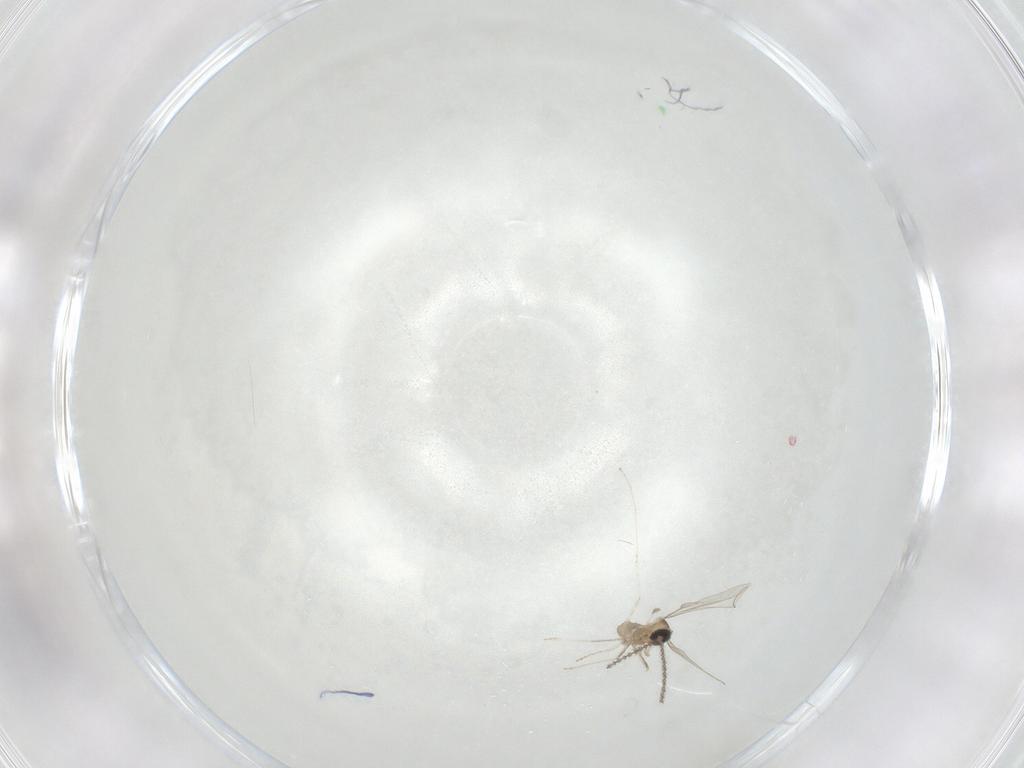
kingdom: Animalia
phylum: Arthropoda
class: Insecta
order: Diptera
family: Cecidomyiidae
